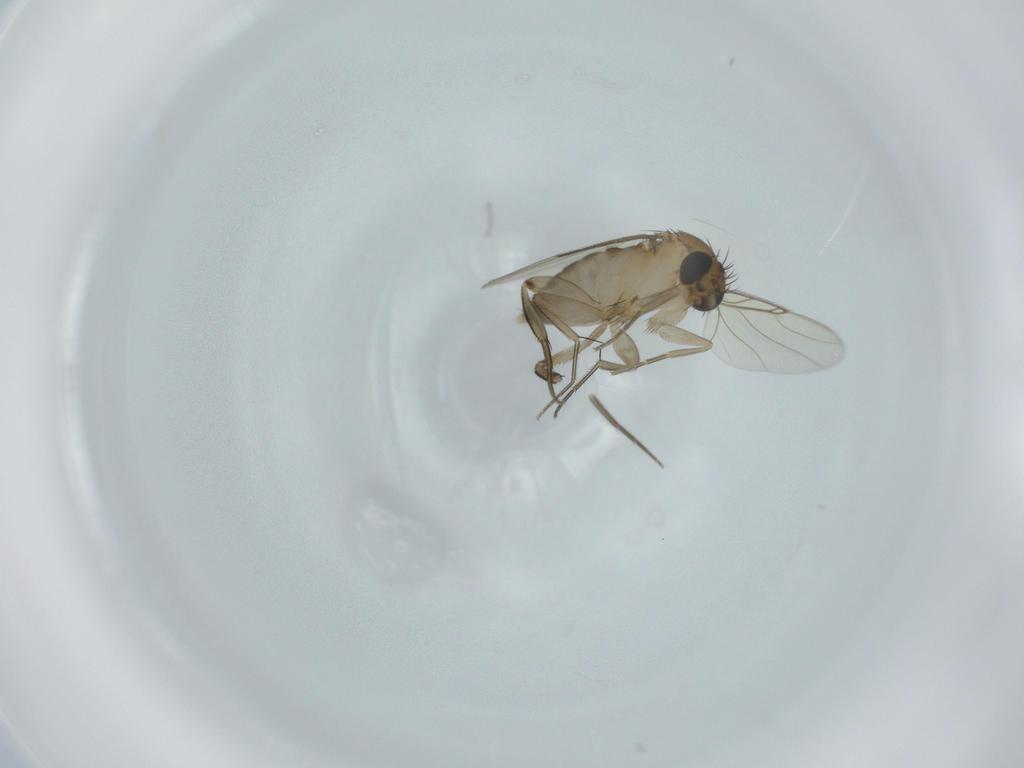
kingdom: Animalia
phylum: Arthropoda
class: Insecta
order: Diptera
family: Phoridae
